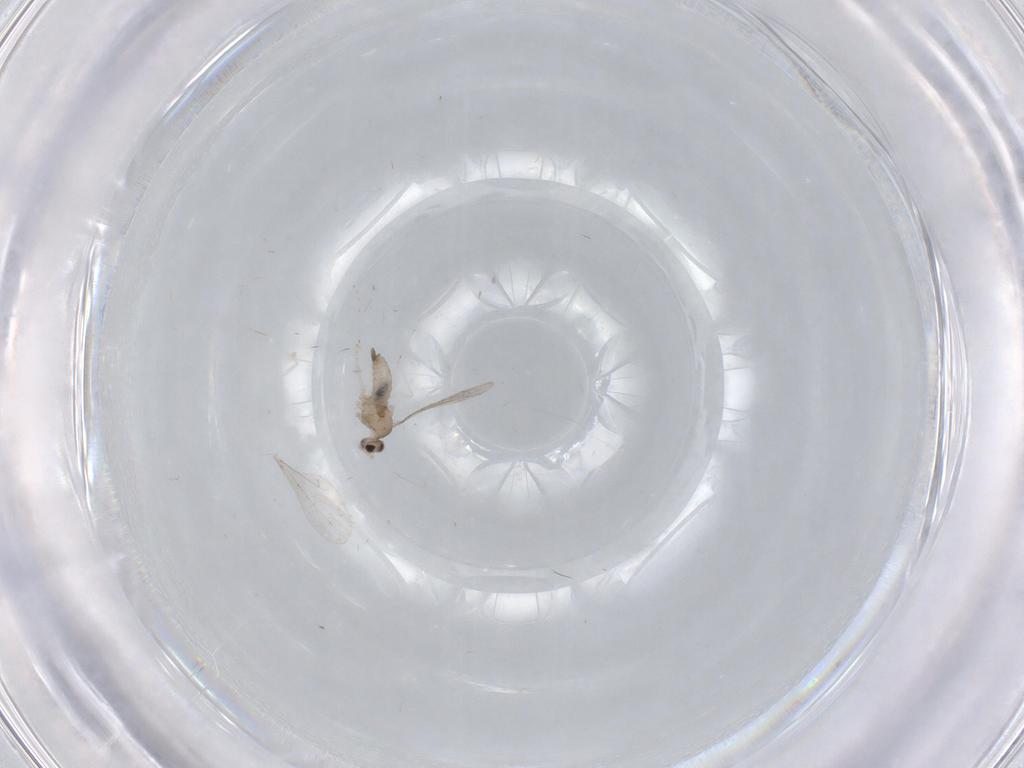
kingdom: Animalia
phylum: Arthropoda
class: Insecta
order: Diptera
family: Cecidomyiidae
